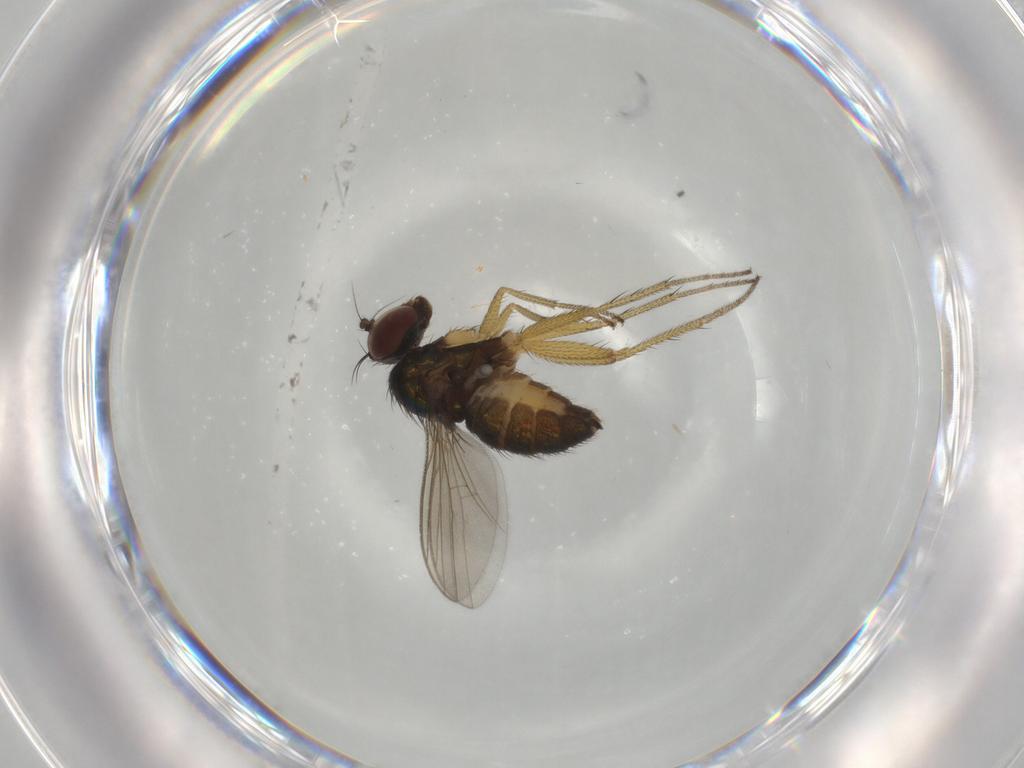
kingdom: Animalia
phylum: Arthropoda
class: Insecta
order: Diptera
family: Dolichopodidae
